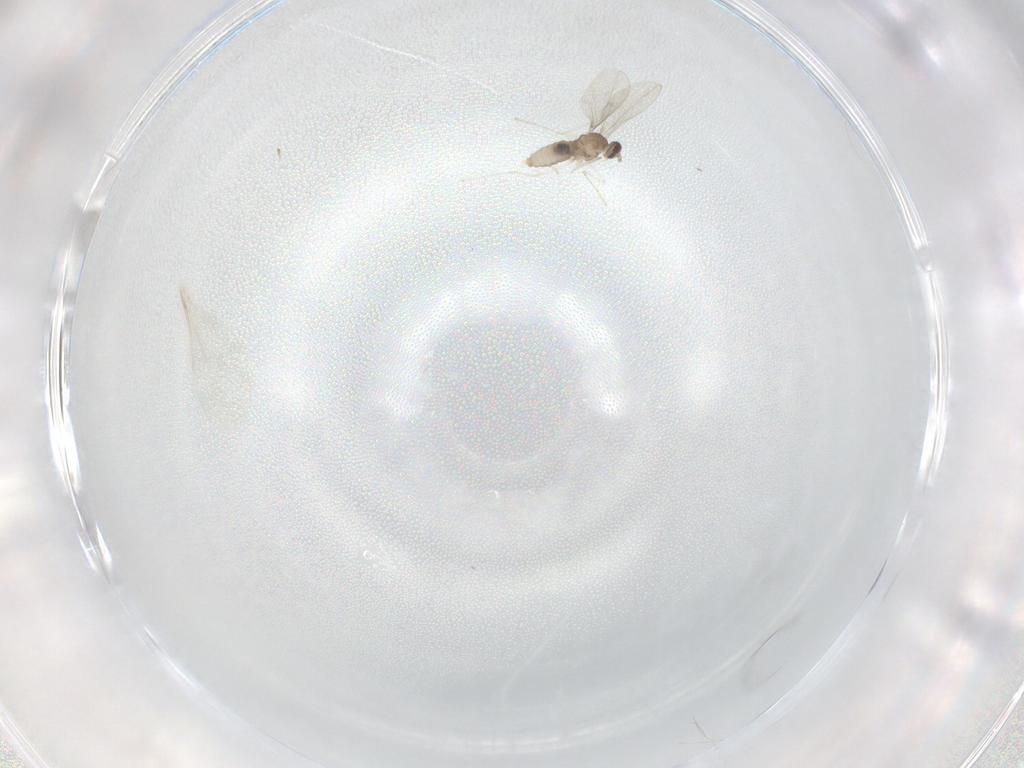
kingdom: Animalia
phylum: Arthropoda
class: Insecta
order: Diptera
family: Cecidomyiidae
